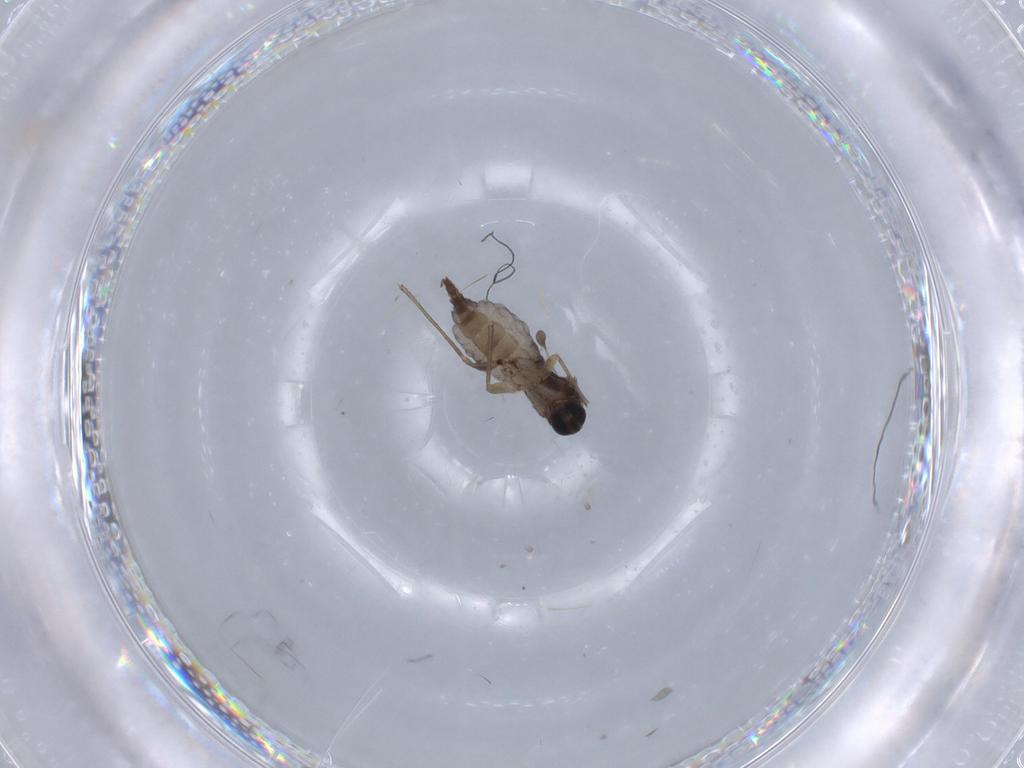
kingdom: Animalia
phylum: Arthropoda
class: Insecta
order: Diptera
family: Sciaridae
